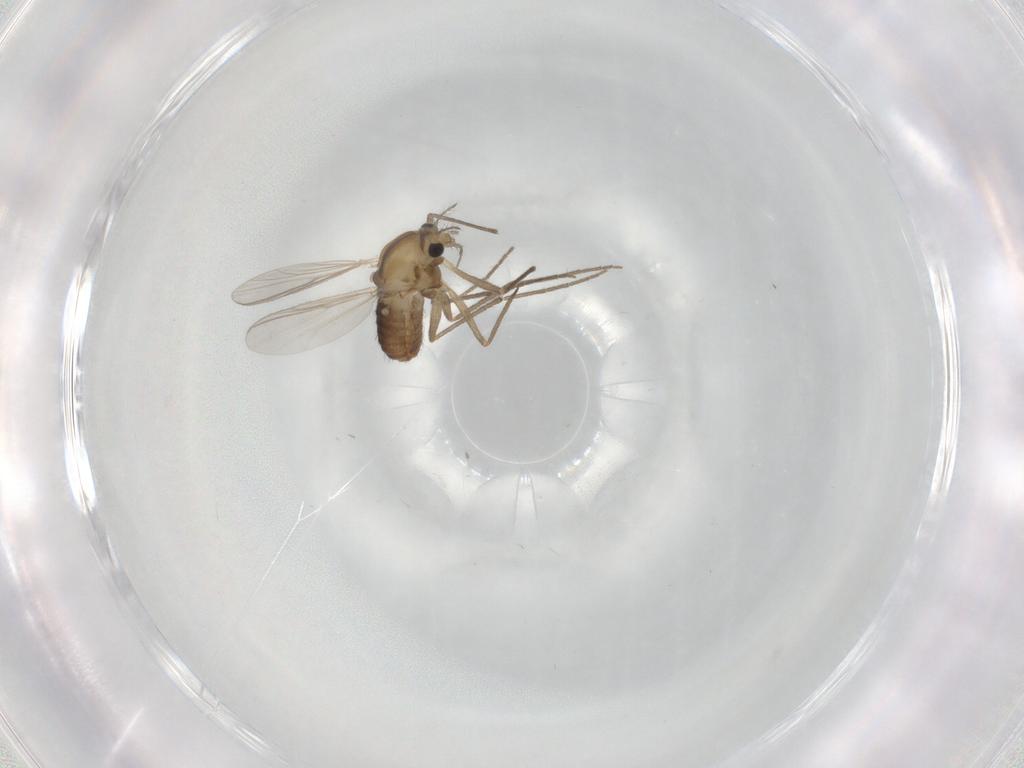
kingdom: Animalia
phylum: Arthropoda
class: Insecta
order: Diptera
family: Chironomidae
